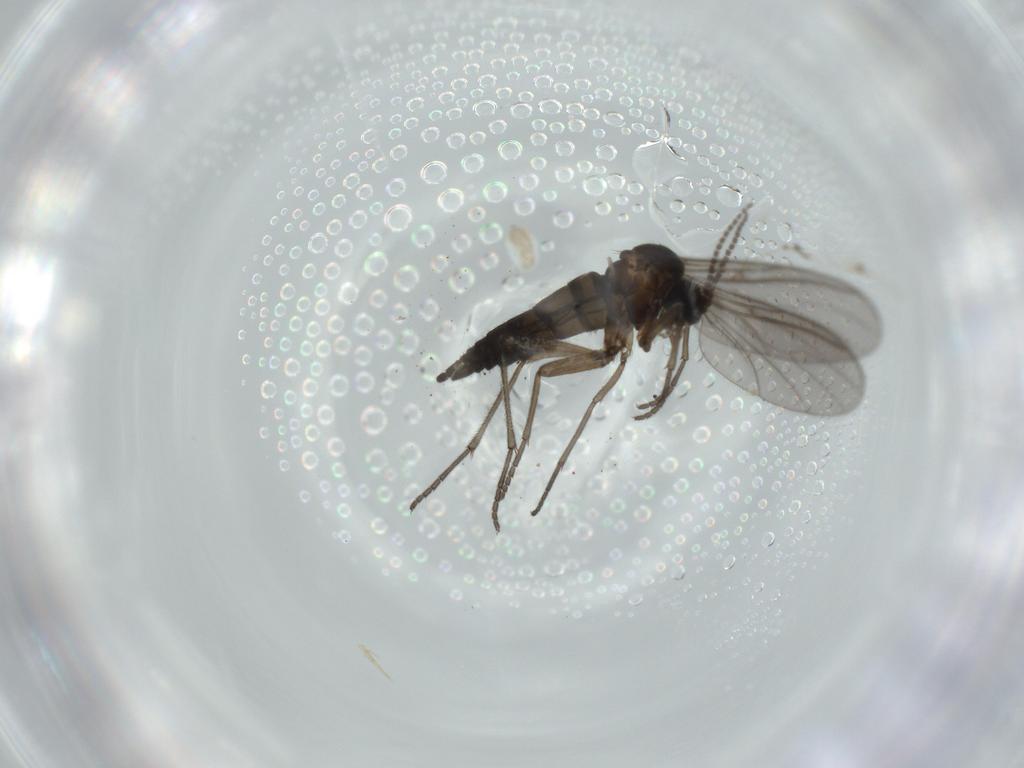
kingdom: Animalia
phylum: Arthropoda
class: Insecta
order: Diptera
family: Sciaridae
